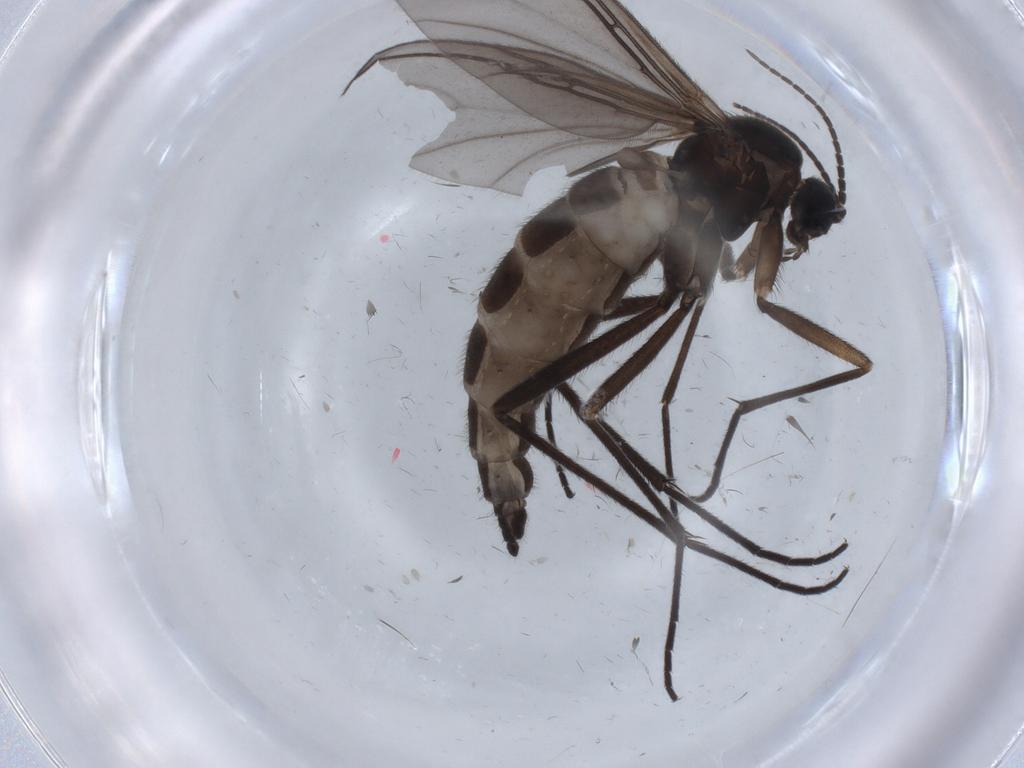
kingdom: Animalia
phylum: Arthropoda
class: Insecta
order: Diptera
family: Sciaridae
